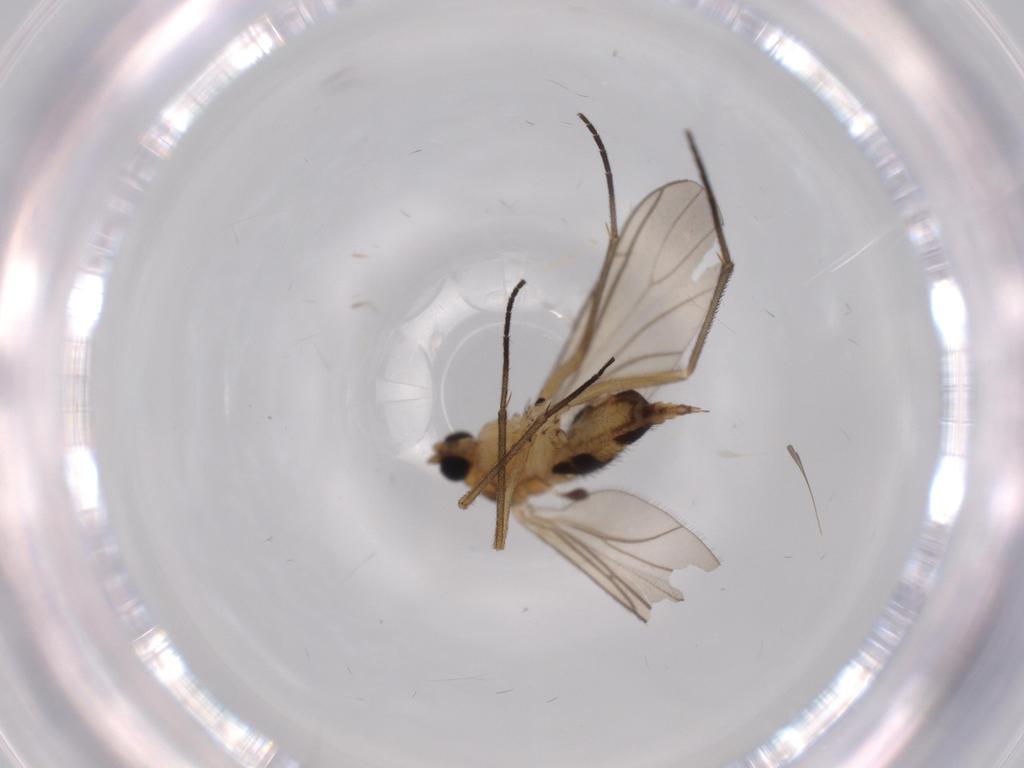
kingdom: Animalia
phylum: Arthropoda
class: Insecta
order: Diptera
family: Sciaridae
